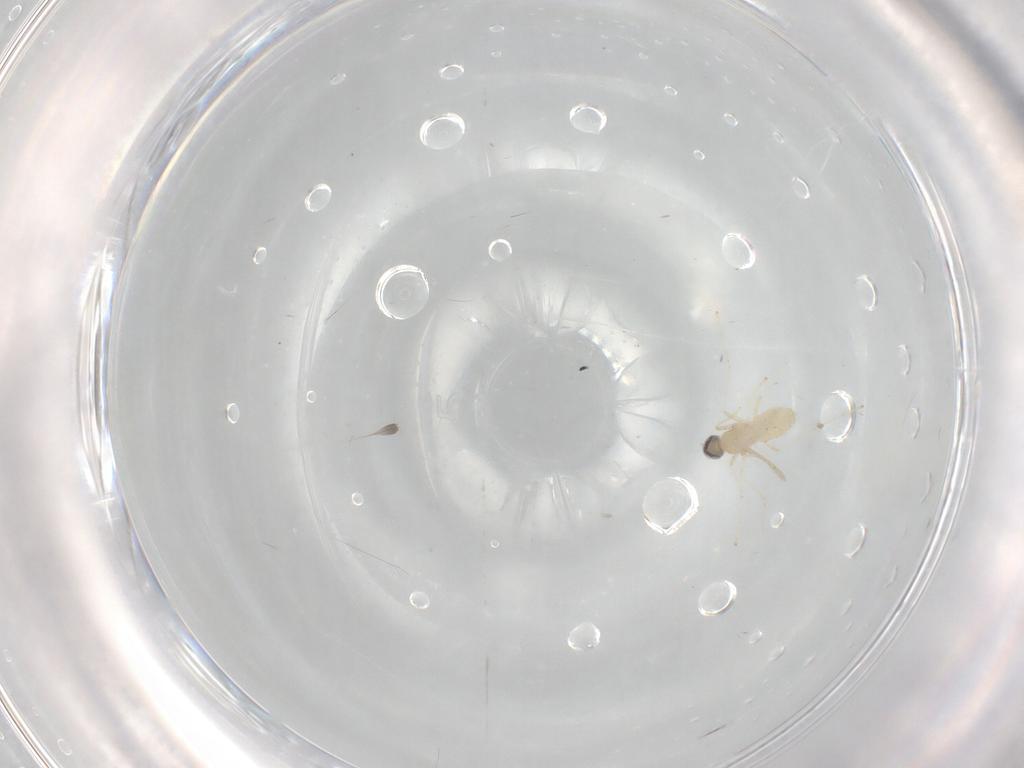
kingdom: Animalia
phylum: Arthropoda
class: Insecta
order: Diptera
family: Cecidomyiidae
